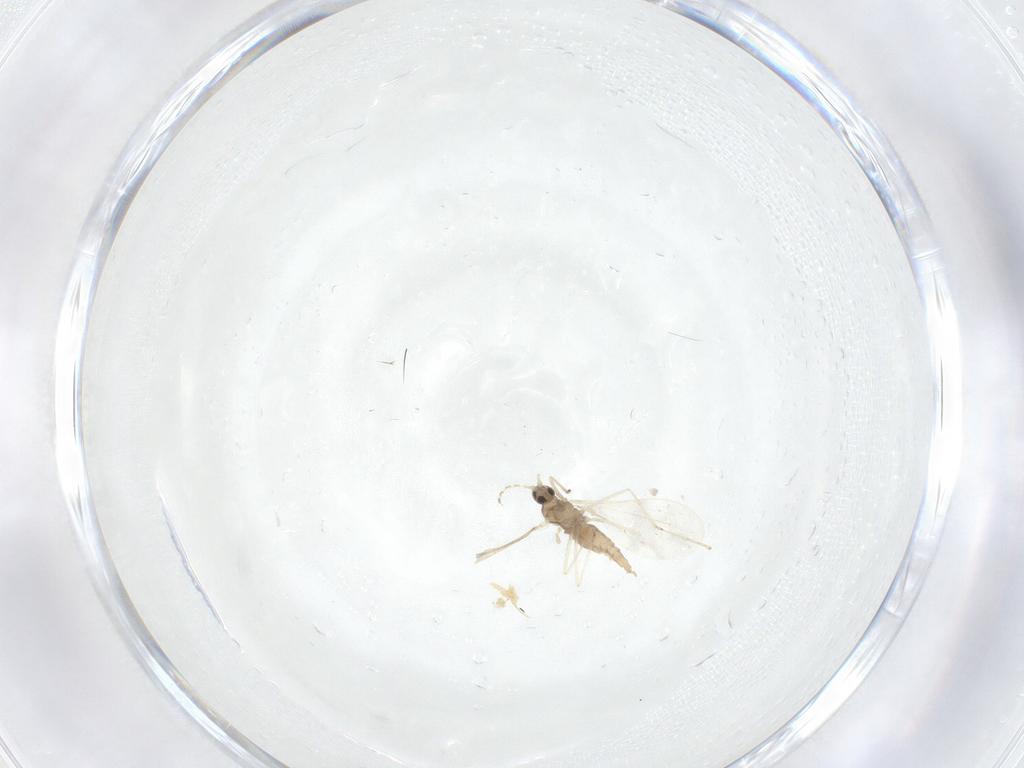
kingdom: Animalia
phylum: Arthropoda
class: Insecta
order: Diptera
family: Cecidomyiidae
